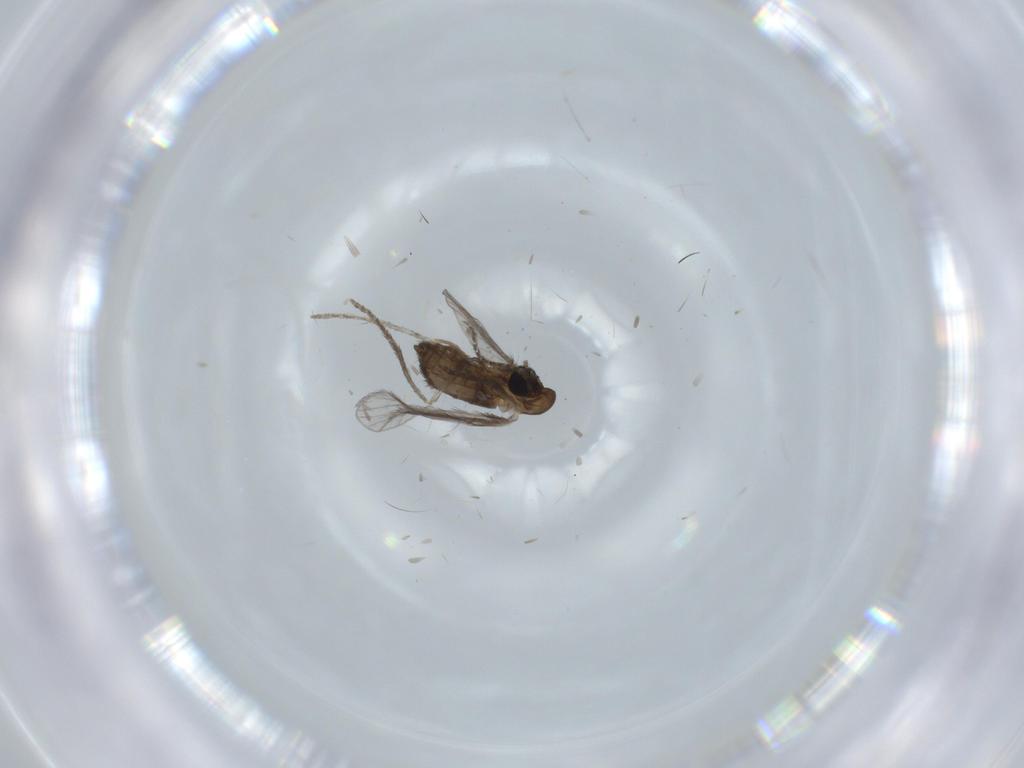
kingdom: Animalia
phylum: Arthropoda
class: Insecta
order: Diptera
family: Psychodidae
